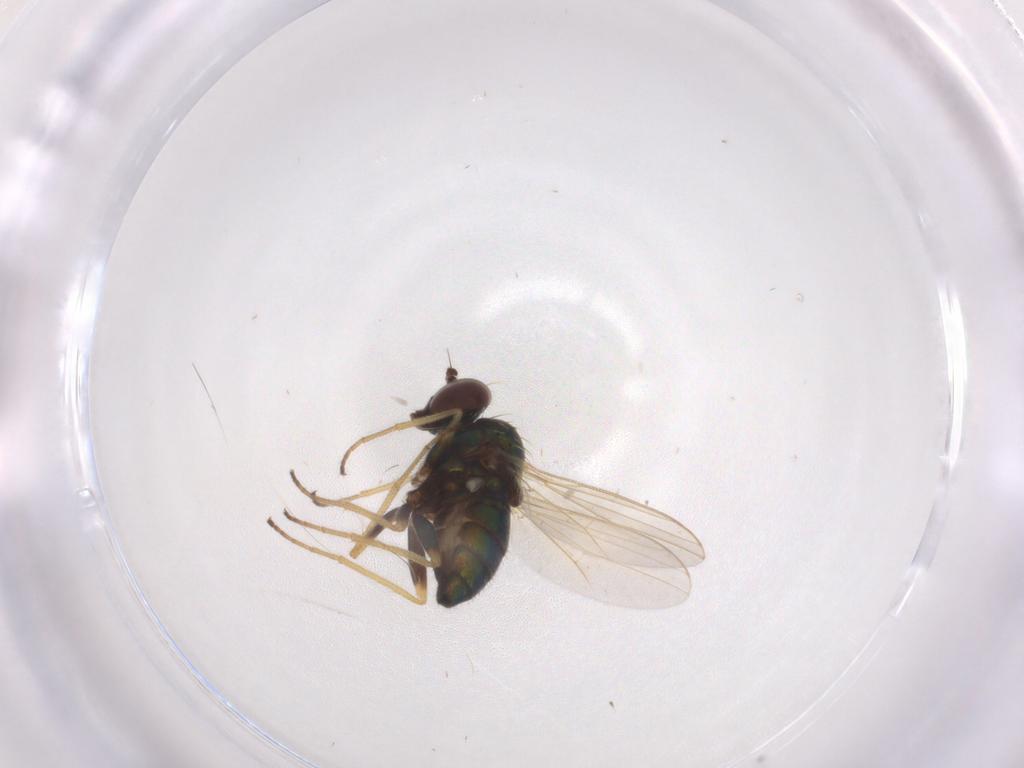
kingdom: Animalia
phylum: Arthropoda
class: Insecta
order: Diptera
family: Dolichopodidae
